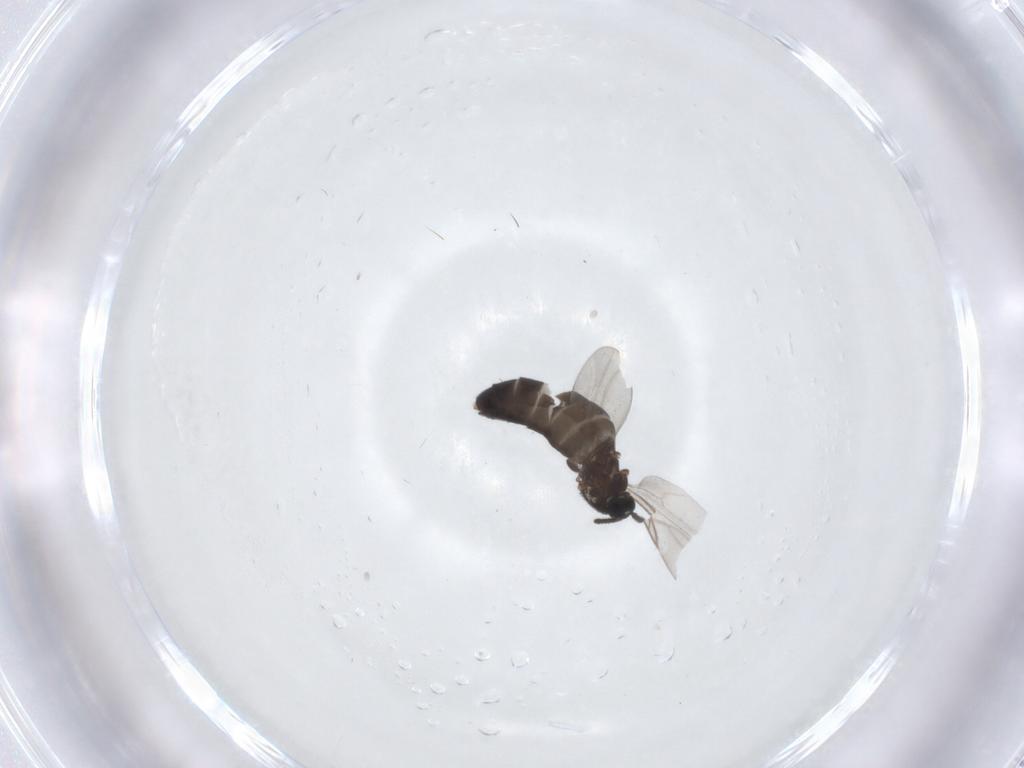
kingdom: Animalia
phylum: Arthropoda
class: Insecta
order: Diptera
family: Scatopsidae
